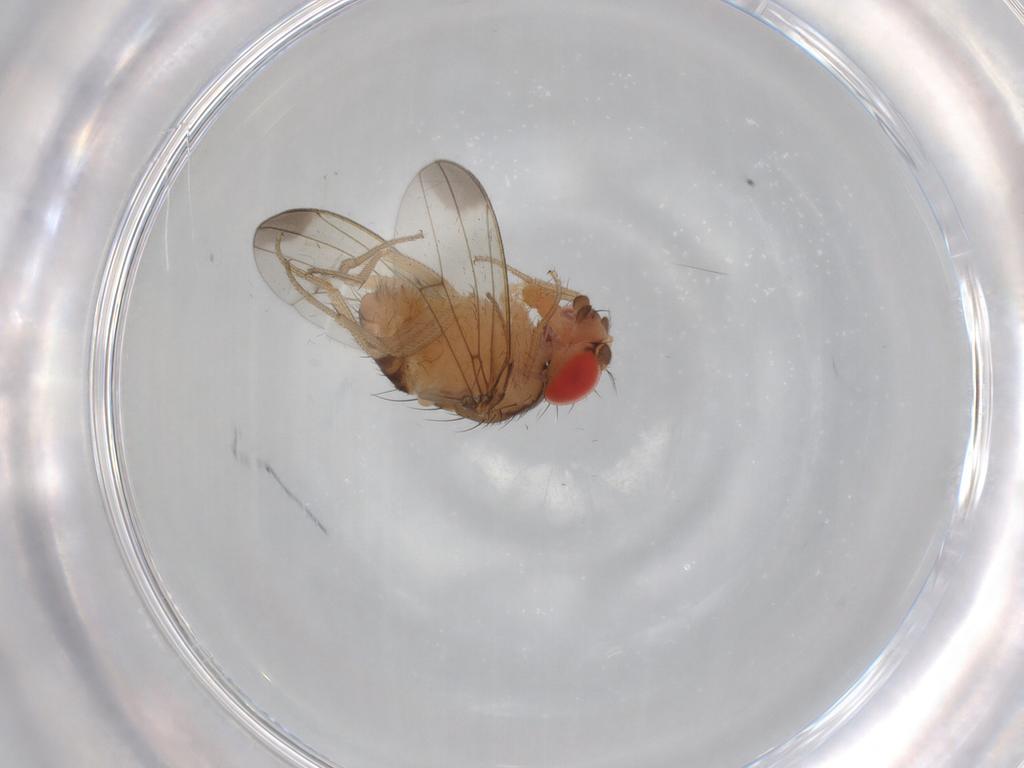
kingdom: Animalia
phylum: Arthropoda
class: Insecta
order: Diptera
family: Drosophilidae
